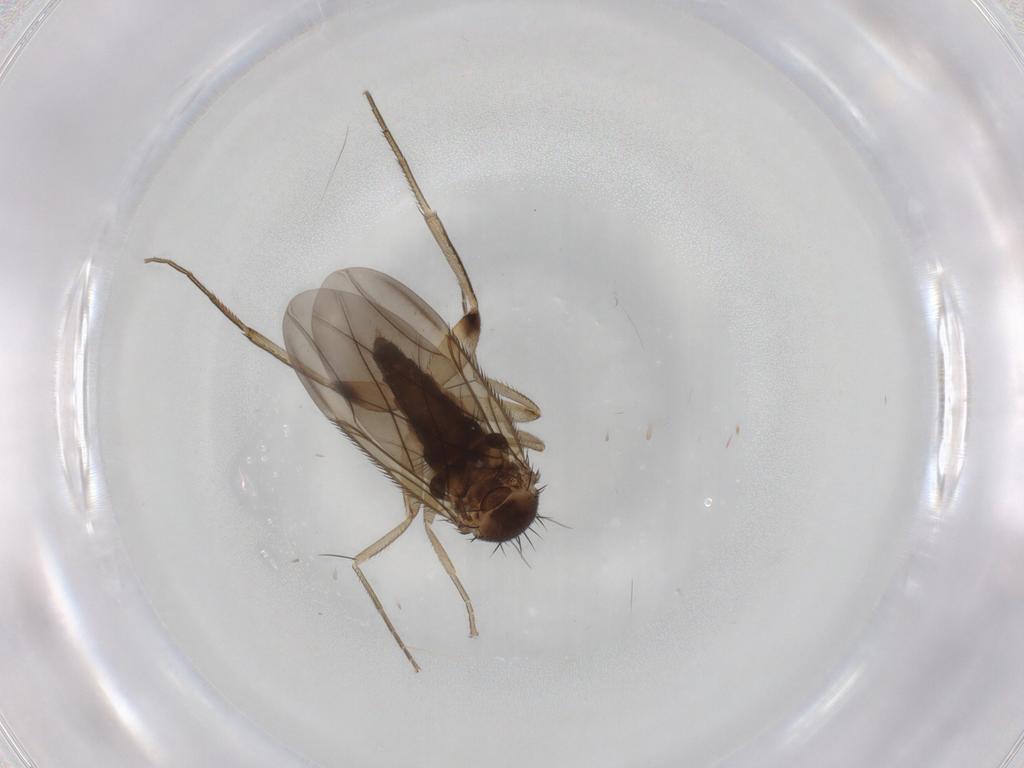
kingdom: Animalia
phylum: Arthropoda
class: Insecta
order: Diptera
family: Phoridae
